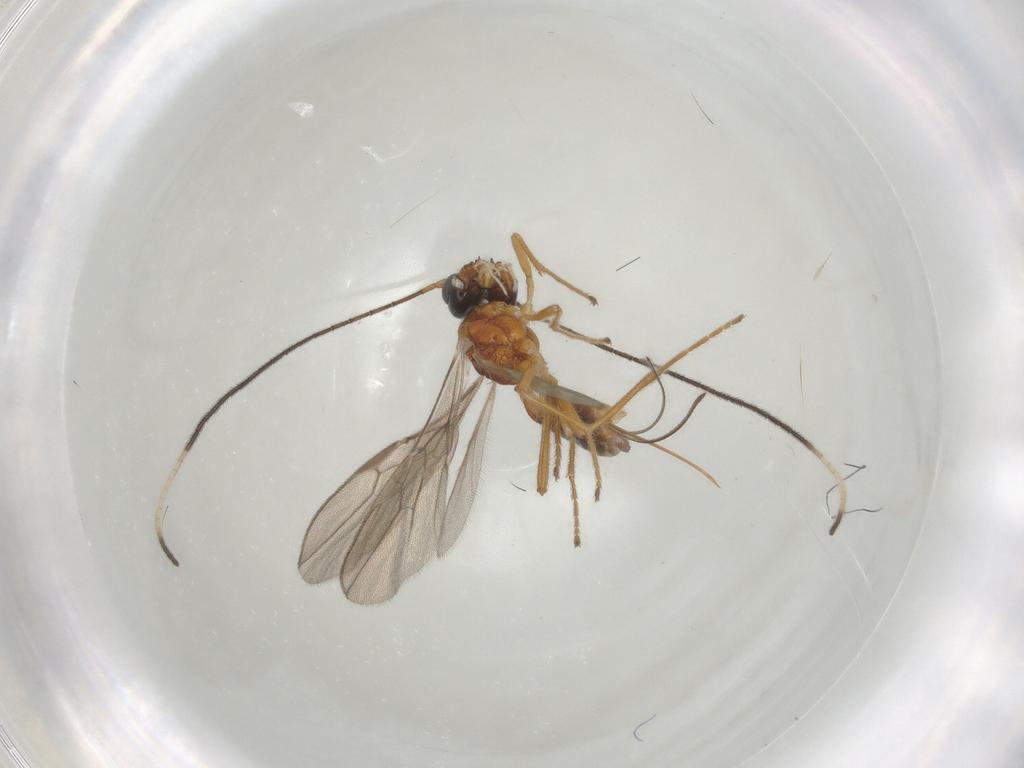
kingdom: Animalia
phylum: Arthropoda
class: Insecta
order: Hymenoptera
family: Braconidae
